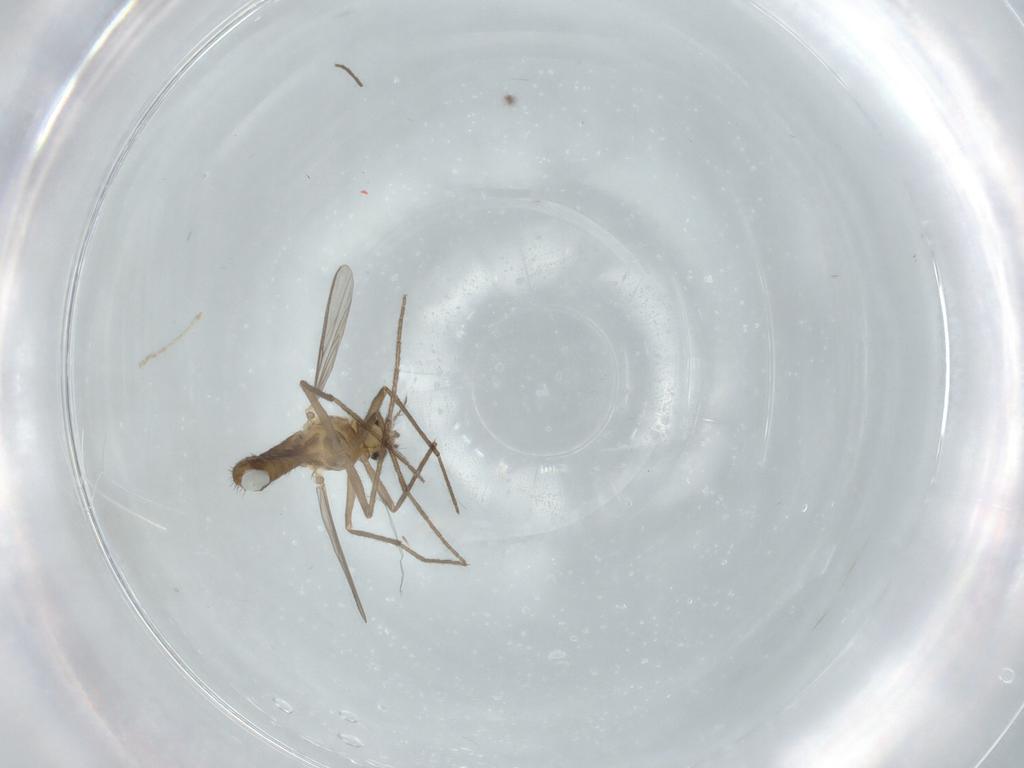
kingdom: Animalia
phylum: Arthropoda
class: Insecta
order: Diptera
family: Chironomidae
